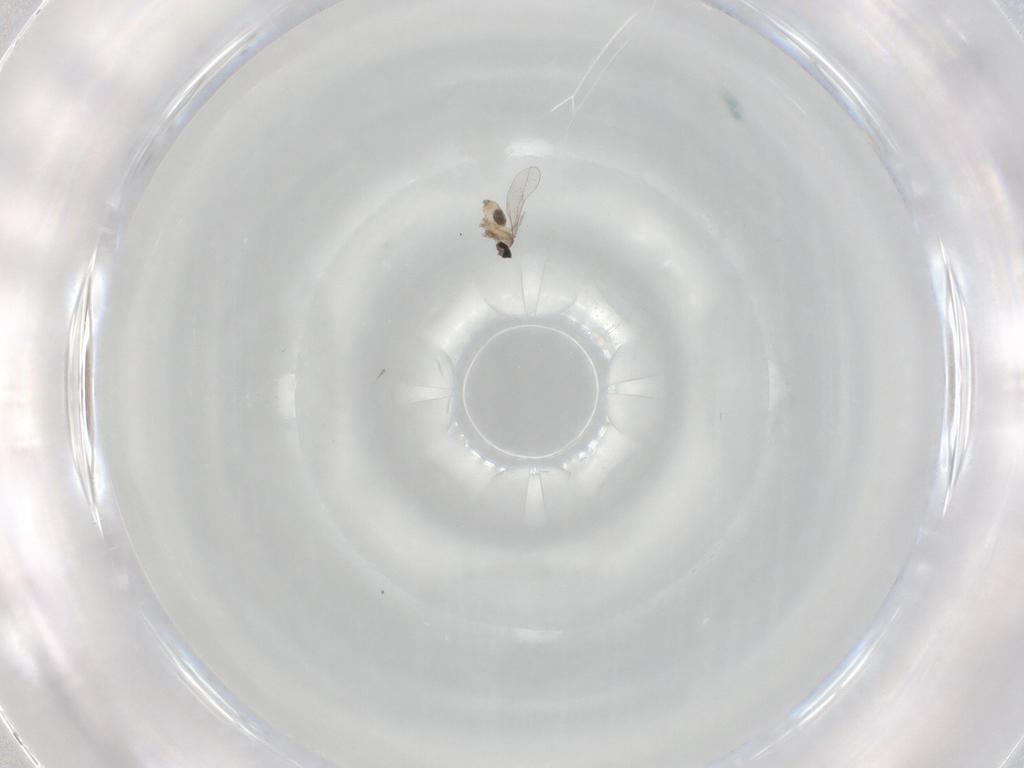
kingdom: Animalia
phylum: Arthropoda
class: Insecta
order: Diptera
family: Cecidomyiidae
